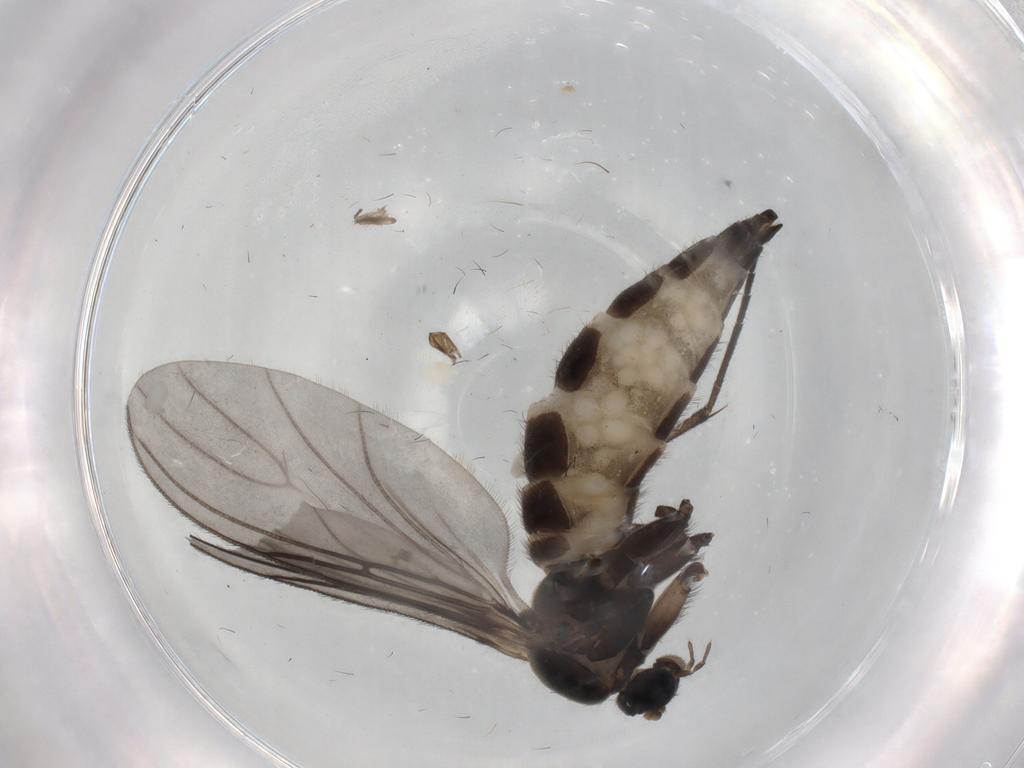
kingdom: Animalia
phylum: Arthropoda
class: Insecta
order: Diptera
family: Sciaridae
